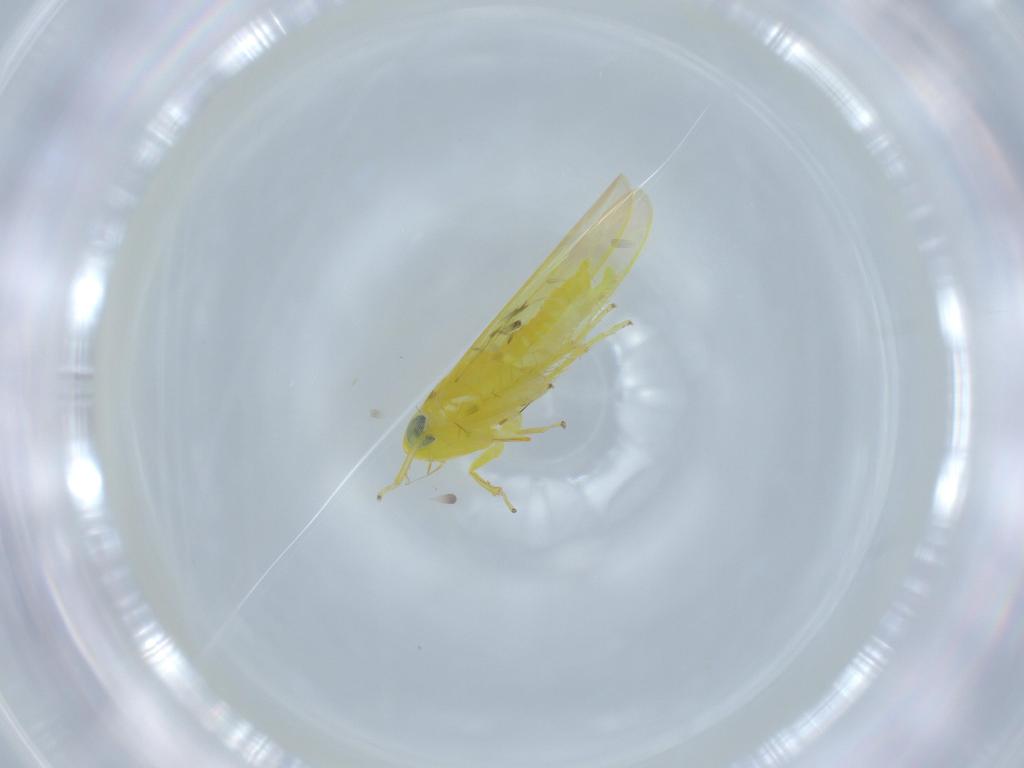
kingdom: Animalia
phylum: Arthropoda
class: Insecta
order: Hemiptera
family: Cicadellidae
